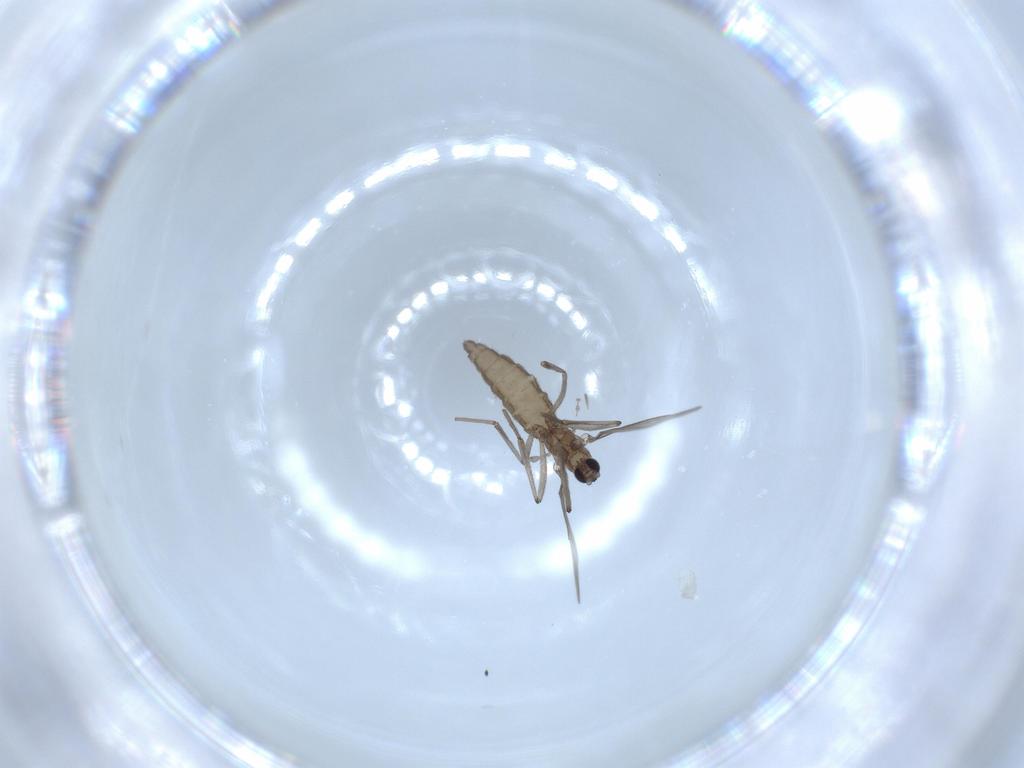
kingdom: Animalia
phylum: Arthropoda
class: Insecta
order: Diptera
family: Cecidomyiidae
